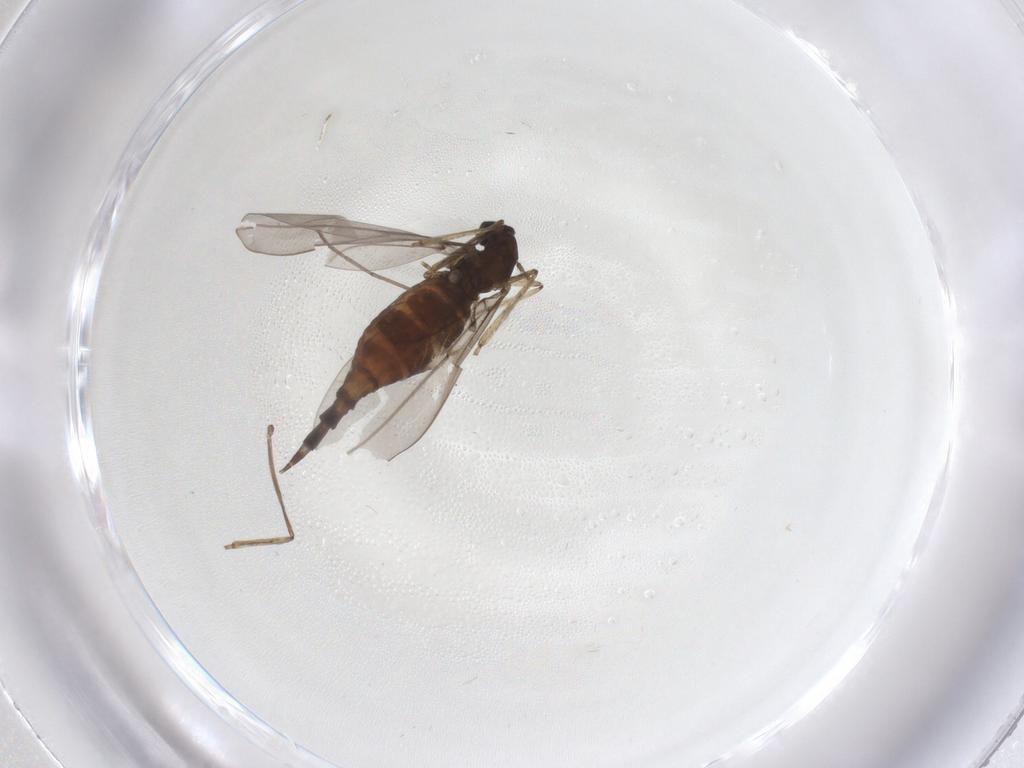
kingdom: Animalia
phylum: Arthropoda
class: Insecta
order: Diptera
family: Cecidomyiidae
